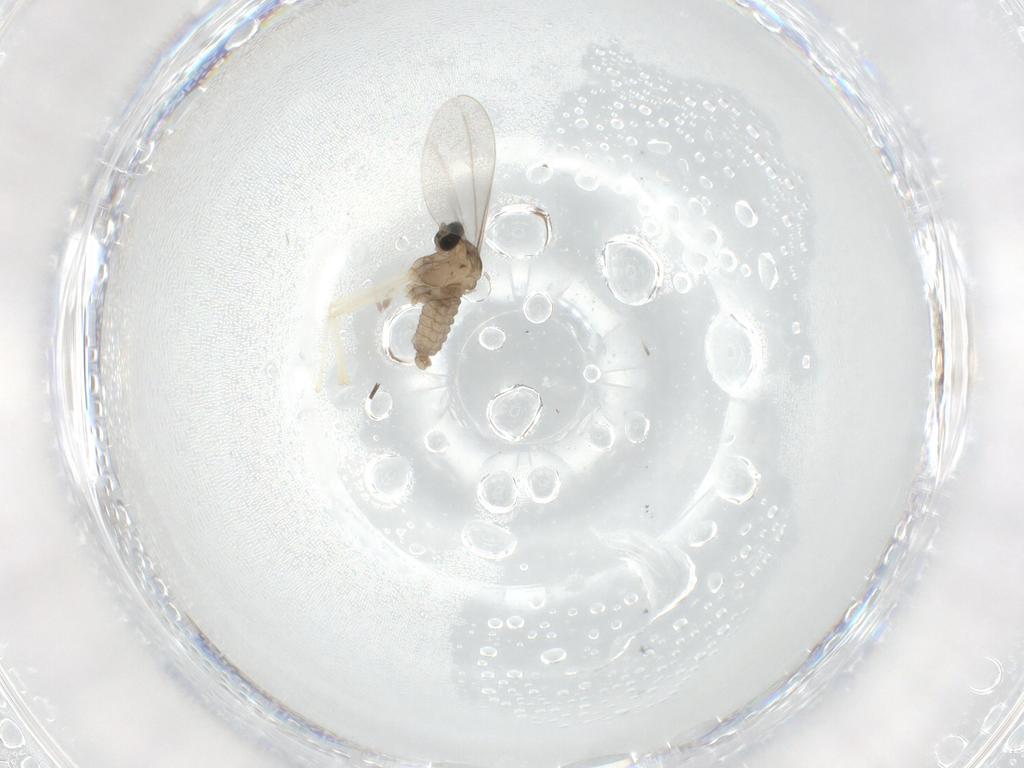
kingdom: Animalia
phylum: Arthropoda
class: Insecta
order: Diptera
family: Cecidomyiidae
